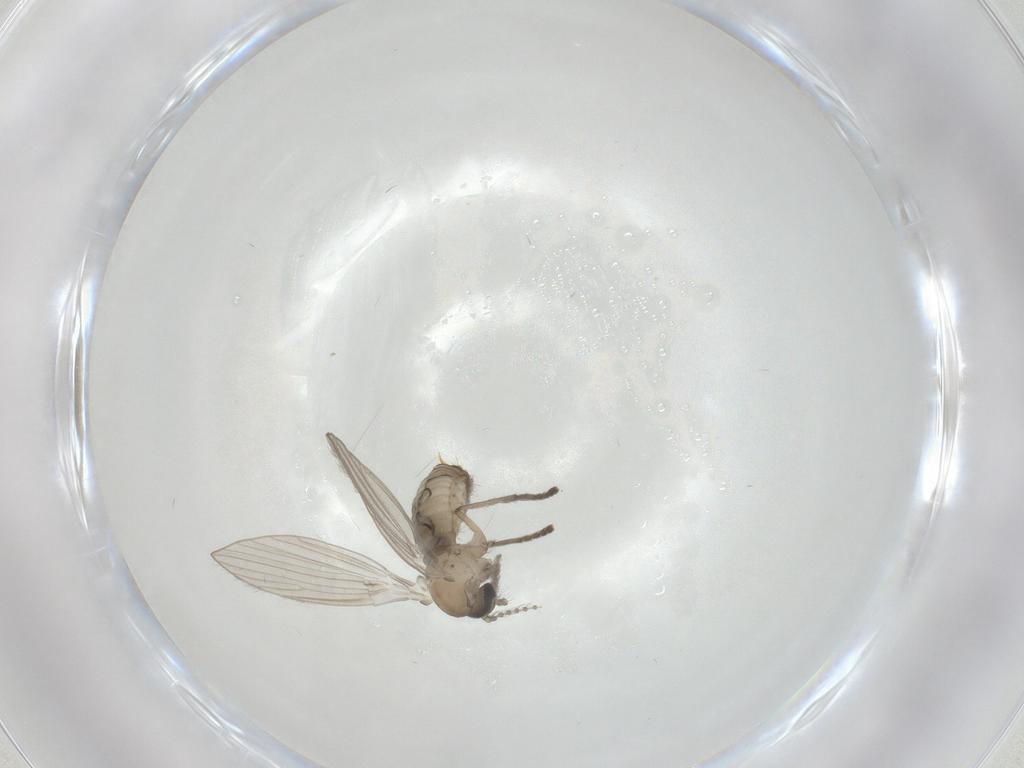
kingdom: Animalia
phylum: Arthropoda
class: Insecta
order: Diptera
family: Psychodidae
